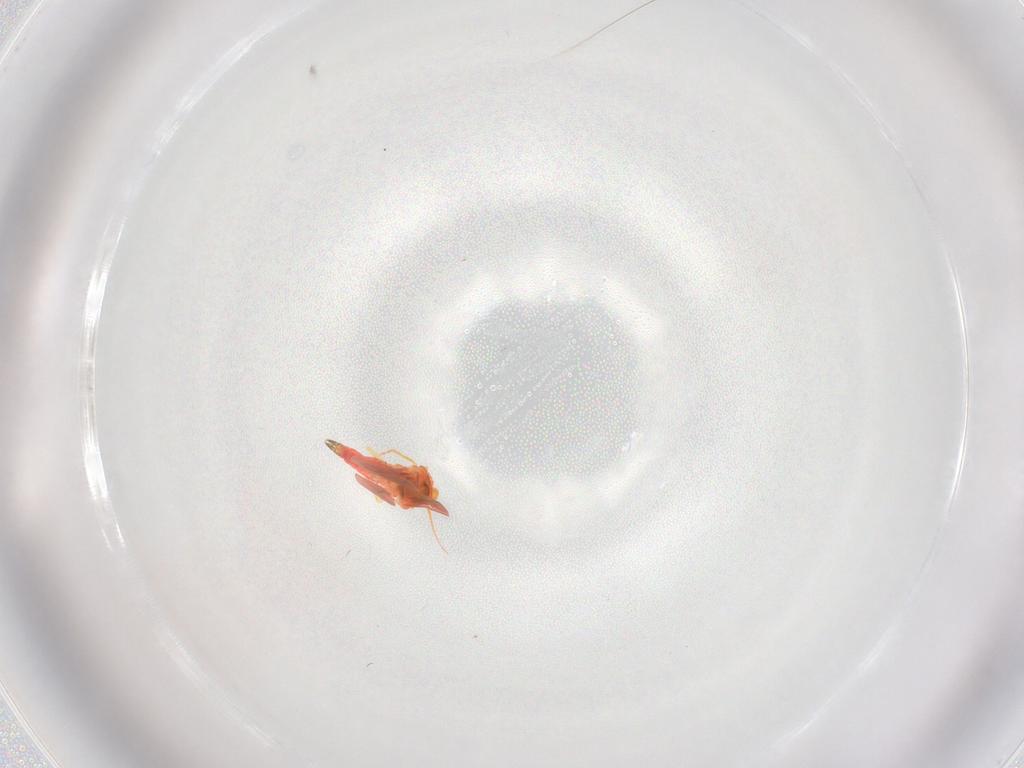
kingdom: Animalia
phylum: Arthropoda
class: Insecta
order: Hemiptera
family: Aleyrodidae
